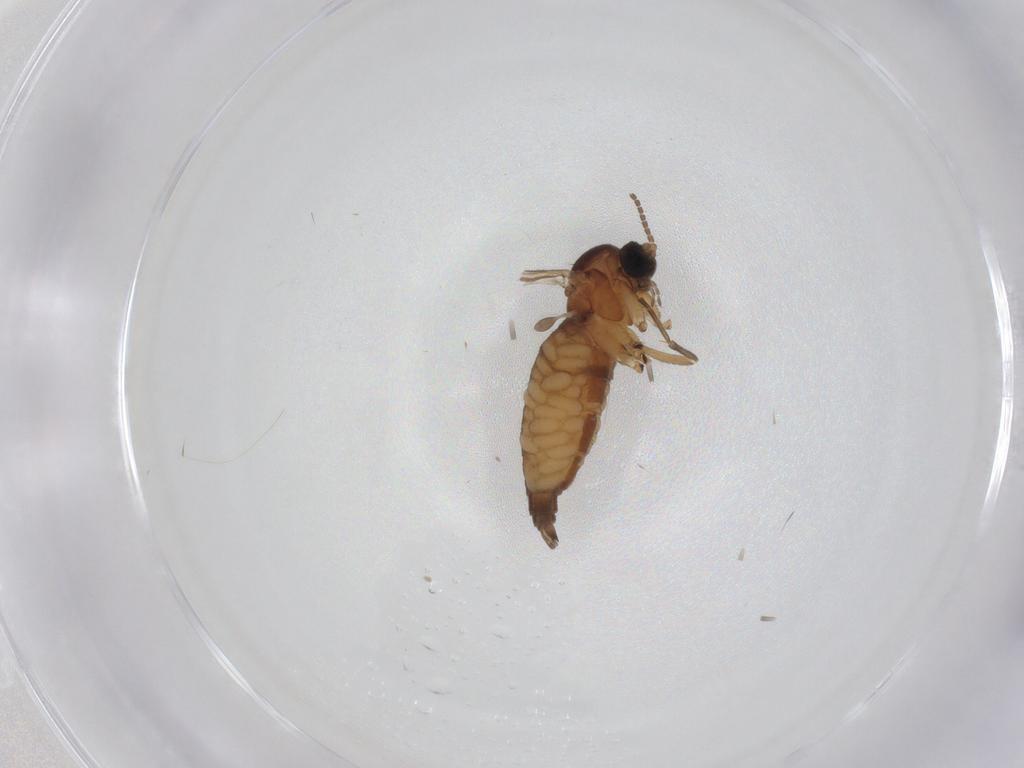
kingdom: Animalia
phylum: Arthropoda
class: Insecta
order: Diptera
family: Sciaridae
